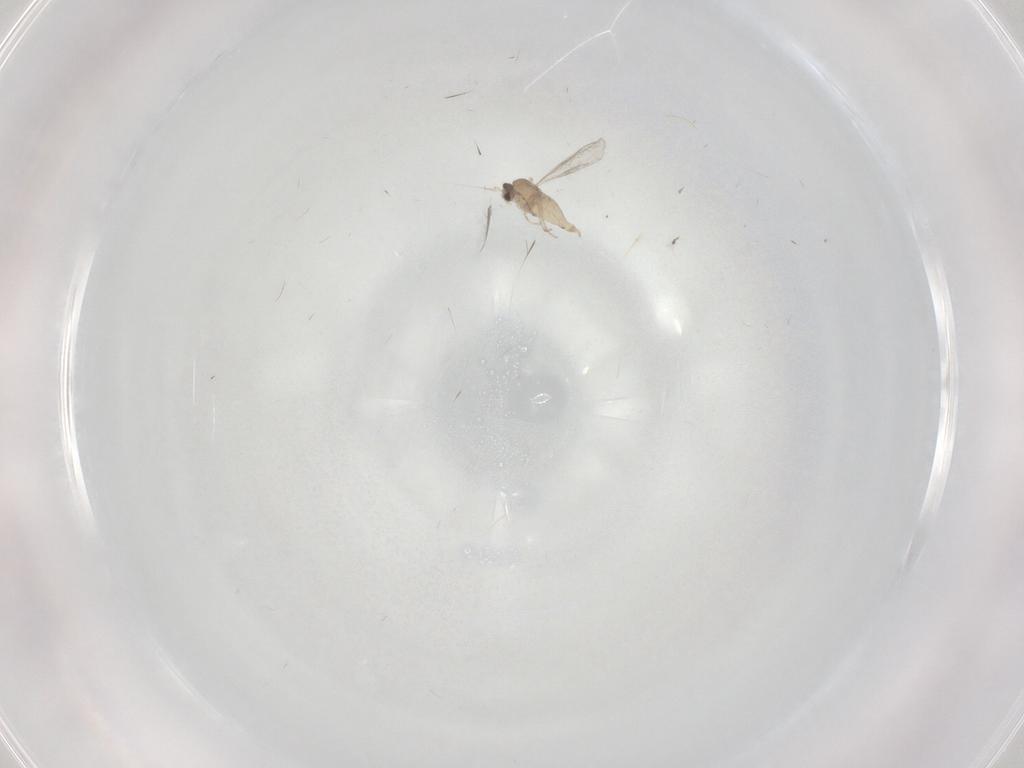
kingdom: Animalia
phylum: Arthropoda
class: Insecta
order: Diptera
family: Cecidomyiidae
